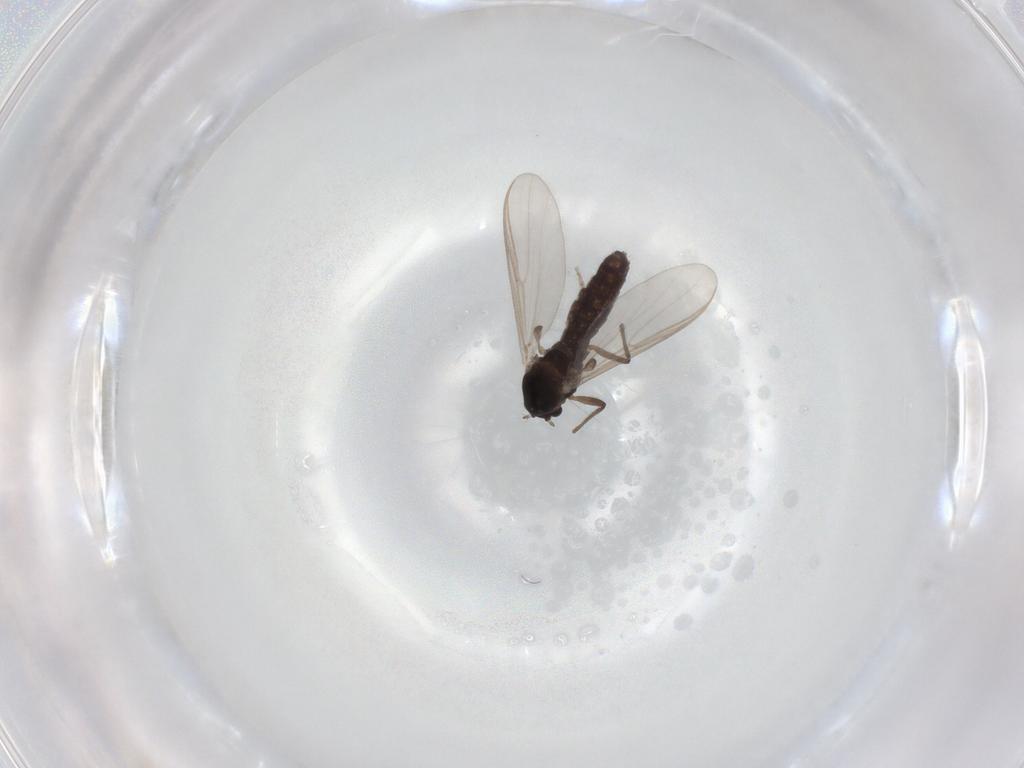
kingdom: Animalia
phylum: Arthropoda
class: Insecta
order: Diptera
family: Chironomidae
